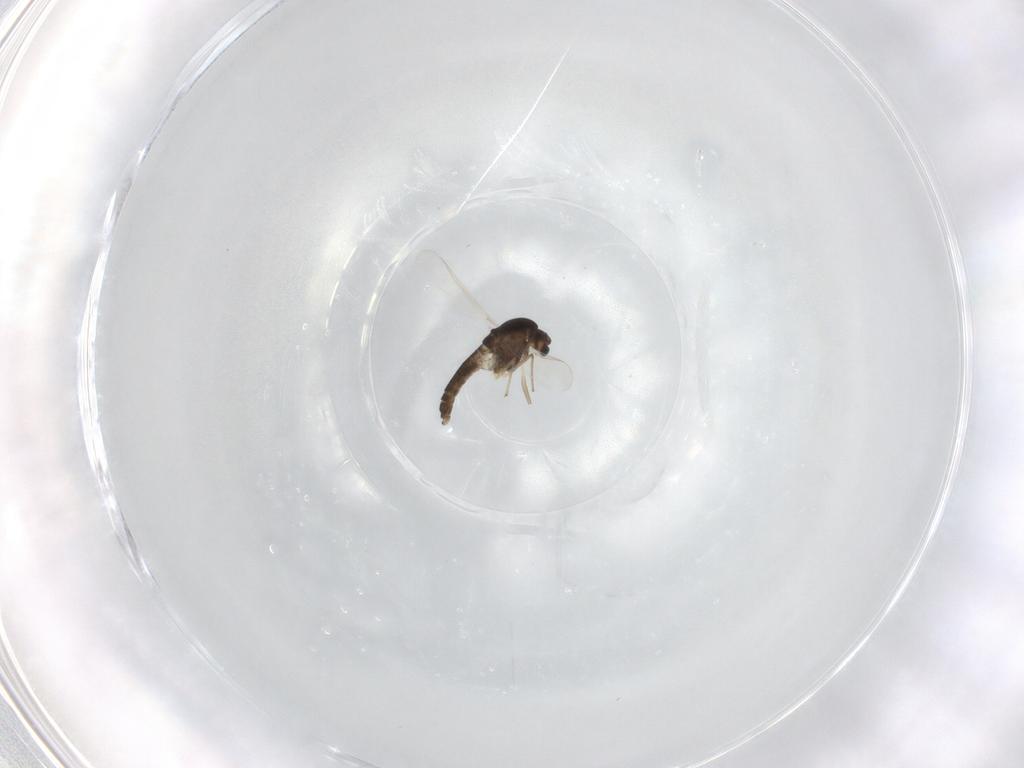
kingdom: Animalia
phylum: Arthropoda
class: Insecta
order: Diptera
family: Chironomidae
